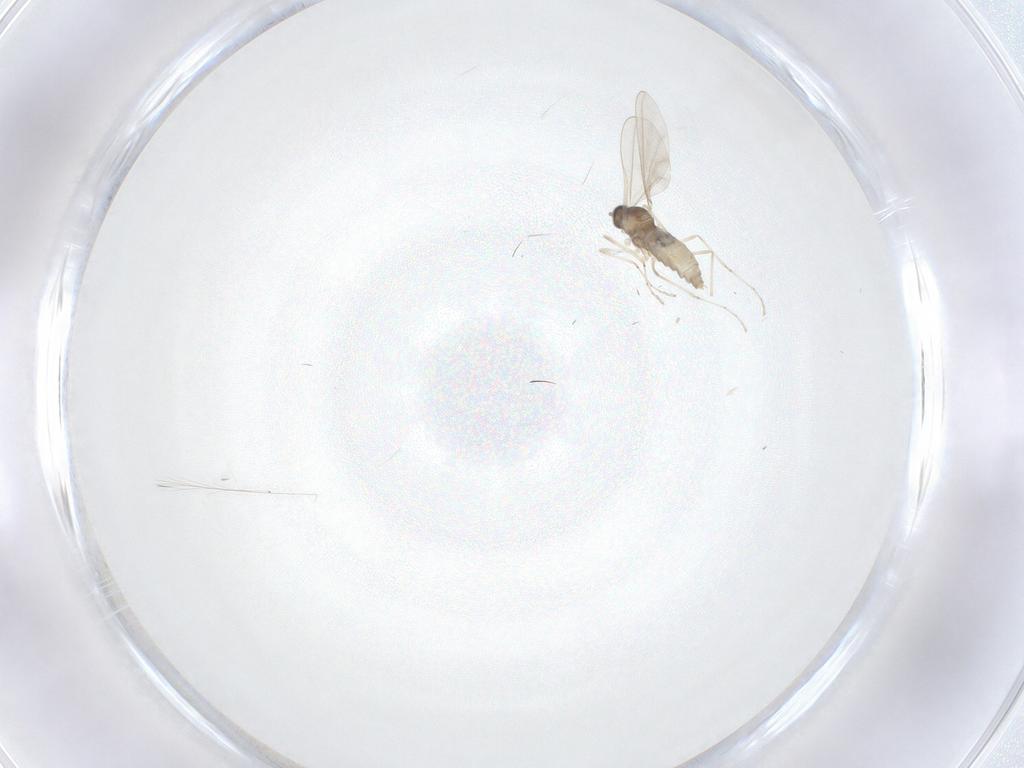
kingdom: Animalia
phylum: Arthropoda
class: Insecta
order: Diptera
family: Cecidomyiidae
